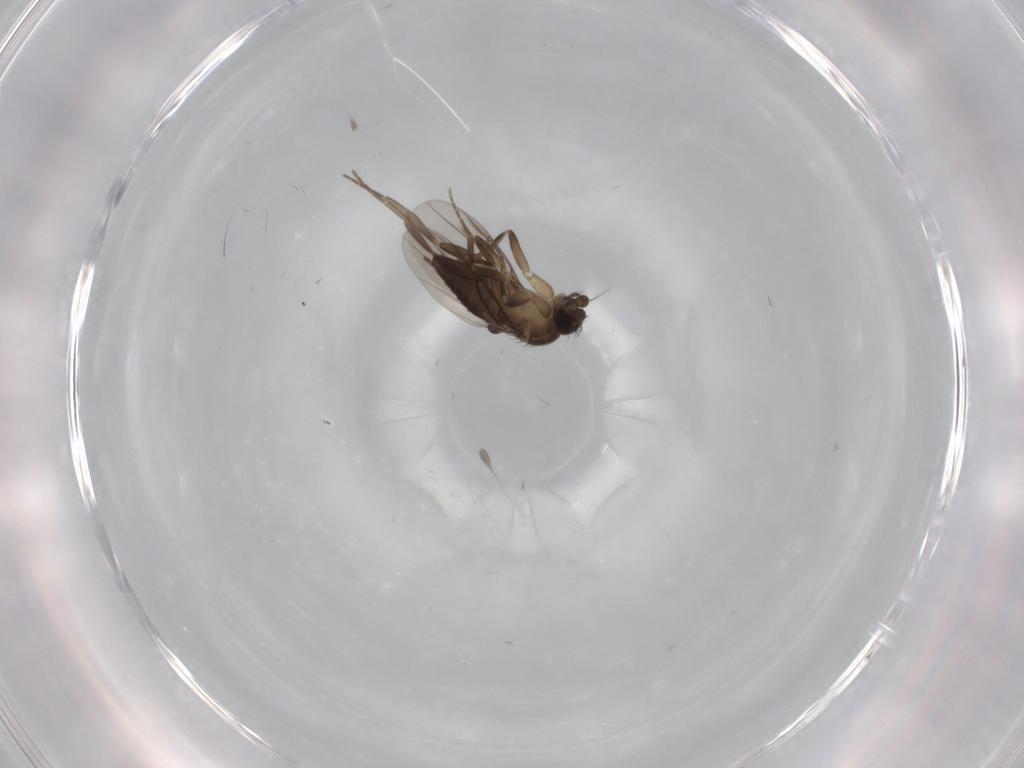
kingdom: Animalia
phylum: Arthropoda
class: Insecta
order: Diptera
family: Phoridae
